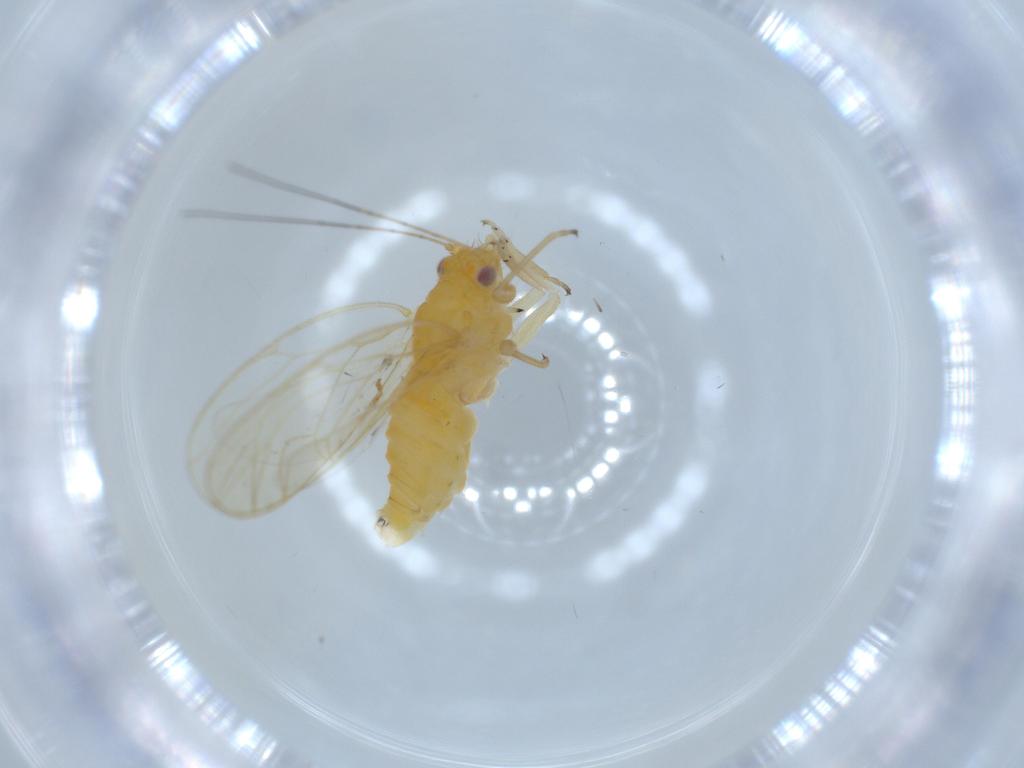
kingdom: Animalia
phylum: Arthropoda
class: Insecta
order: Hemiptera
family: Psyllidae
